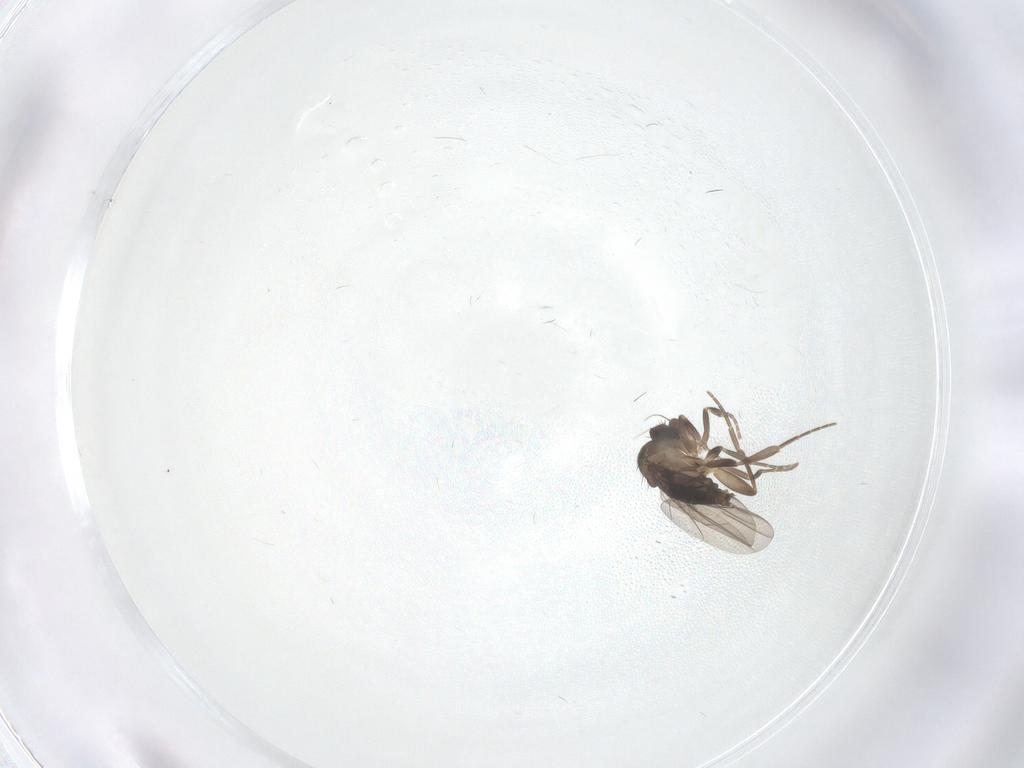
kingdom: Animalia
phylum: Arthropoda
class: Insecta
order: Diptera
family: Phoridae
